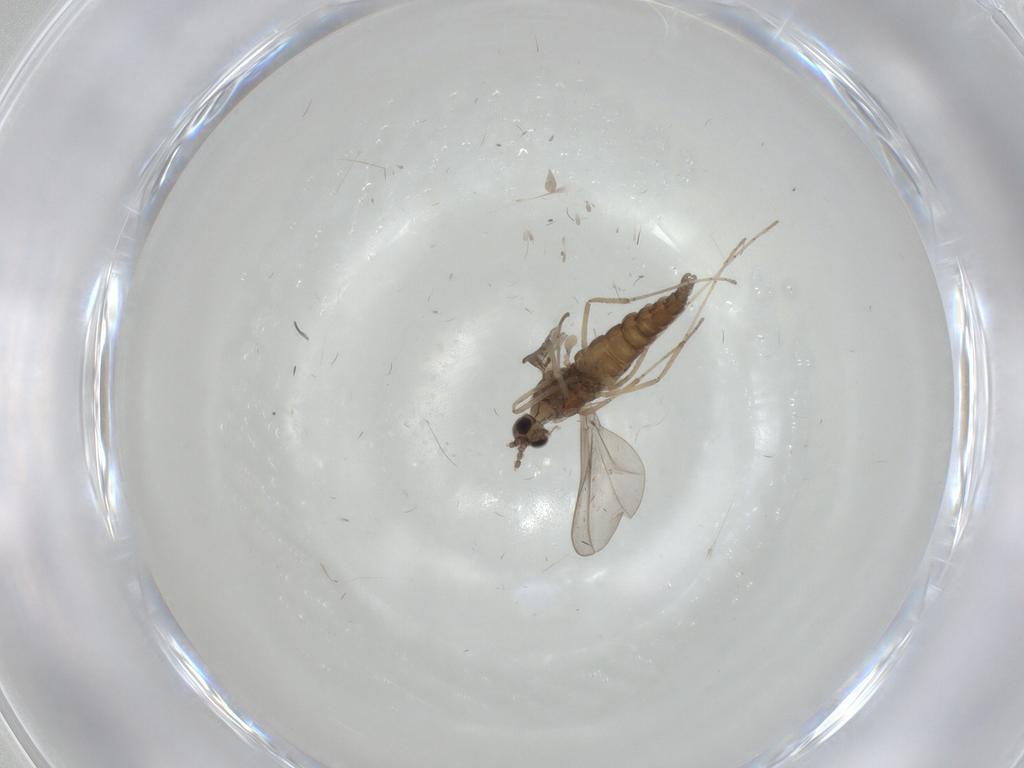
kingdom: Animalia
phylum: Arthropoda
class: Insecta
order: Diptera
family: Cecidomyiidae
